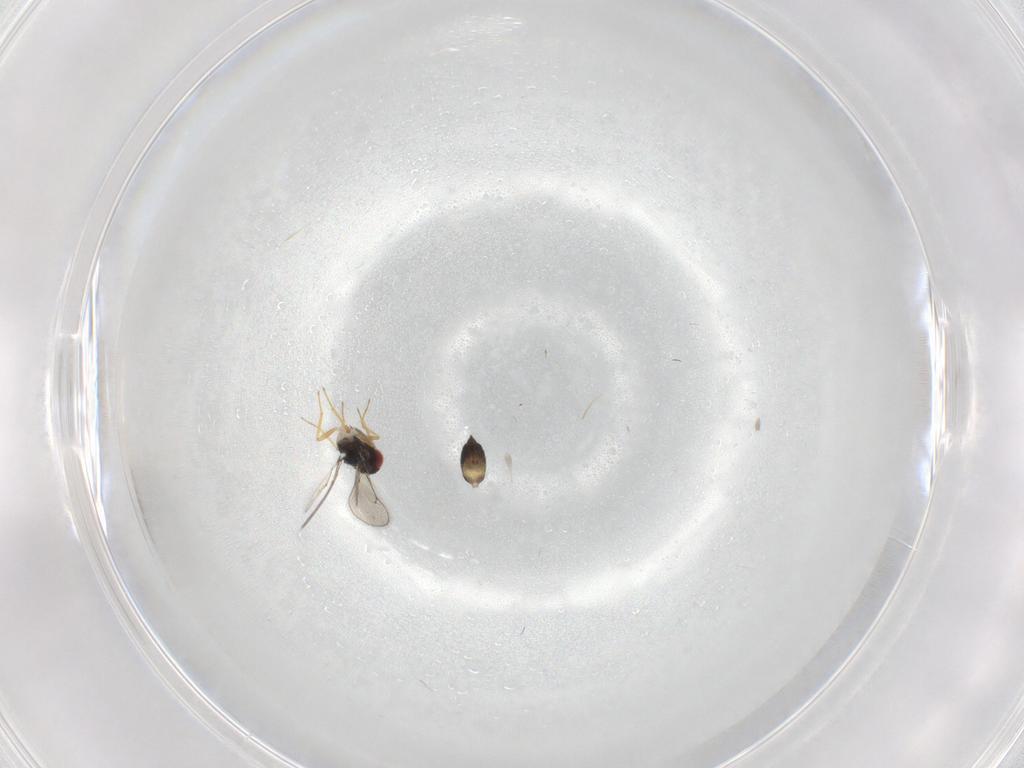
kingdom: Animalia
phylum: Arthropoda
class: Insecta
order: Hymenoptera
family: Eulophidae
